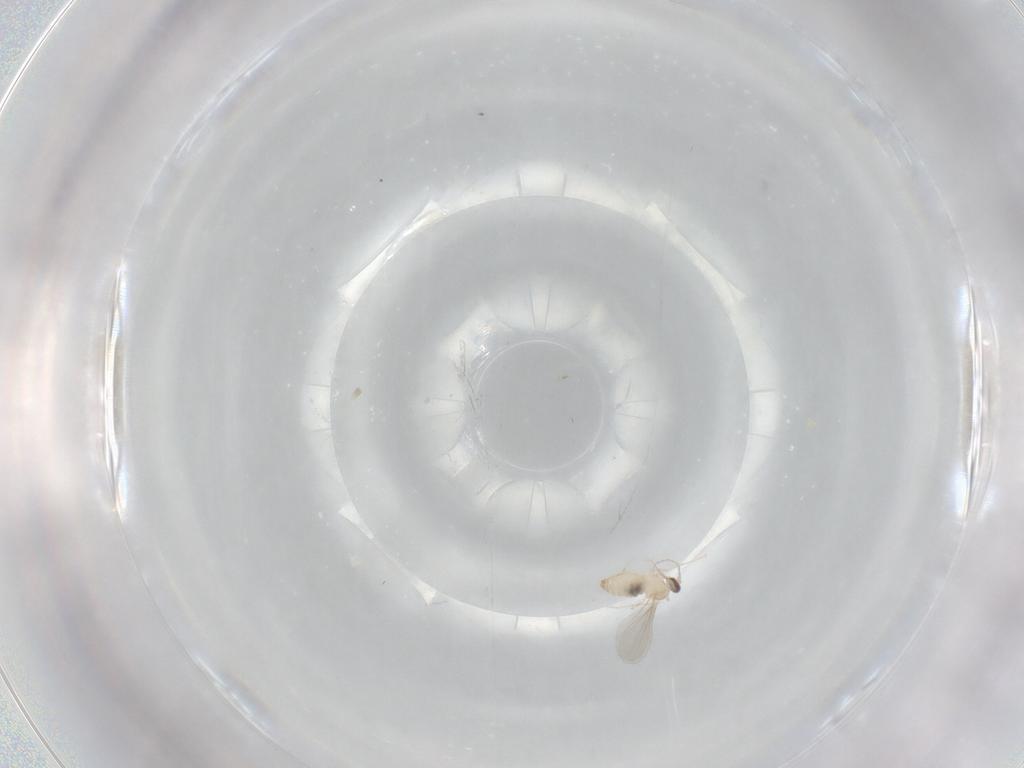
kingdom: Animalia
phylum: Arthropoda
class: Insecta
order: Diptera
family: Cecidomyiidae
